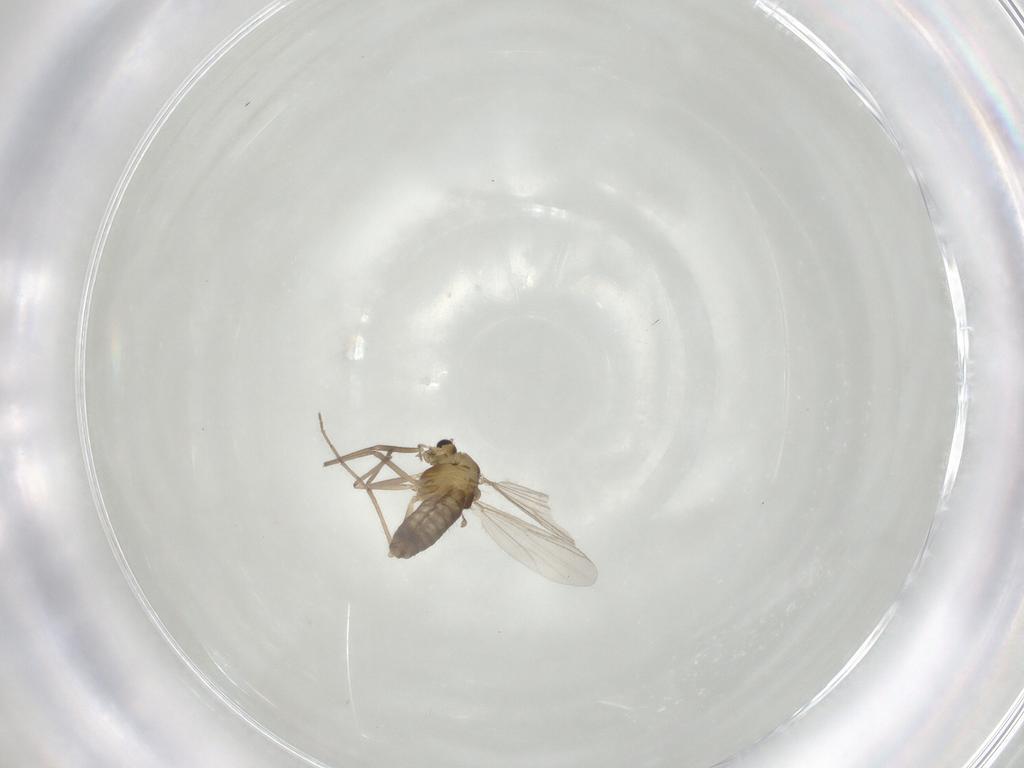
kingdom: Animalia
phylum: Arthropoda
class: Insecta
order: Diptera
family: Chironomidae
